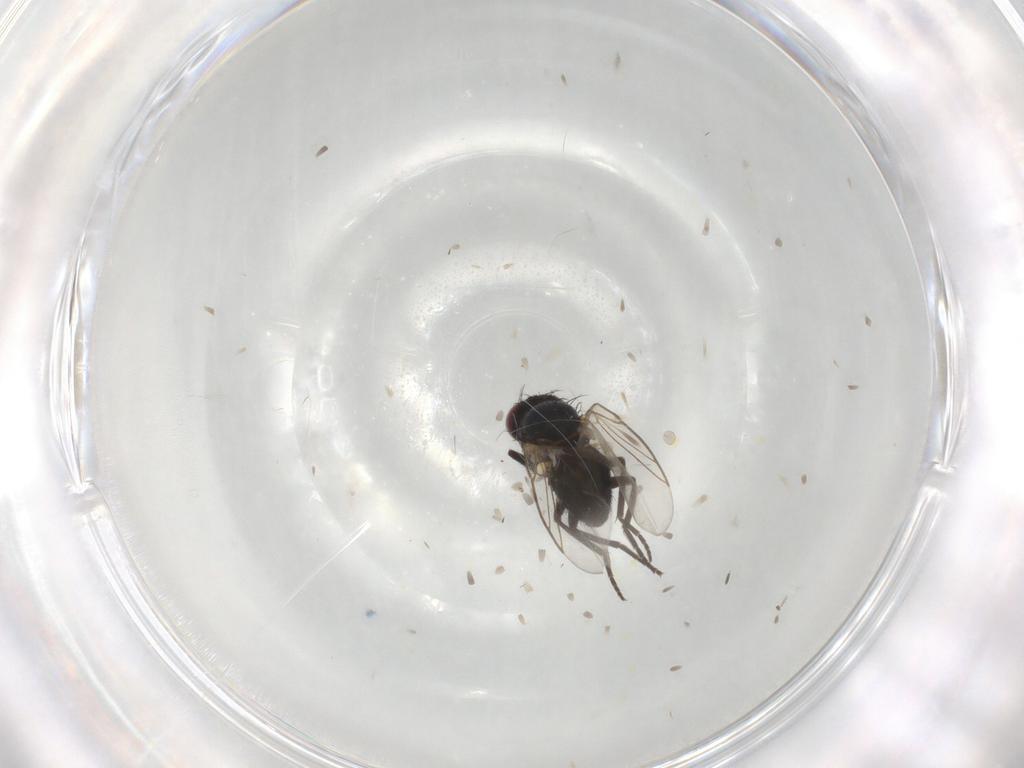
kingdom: Animalia
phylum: Arthropoda
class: Insecta
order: Diptera
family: Agromyzidae
